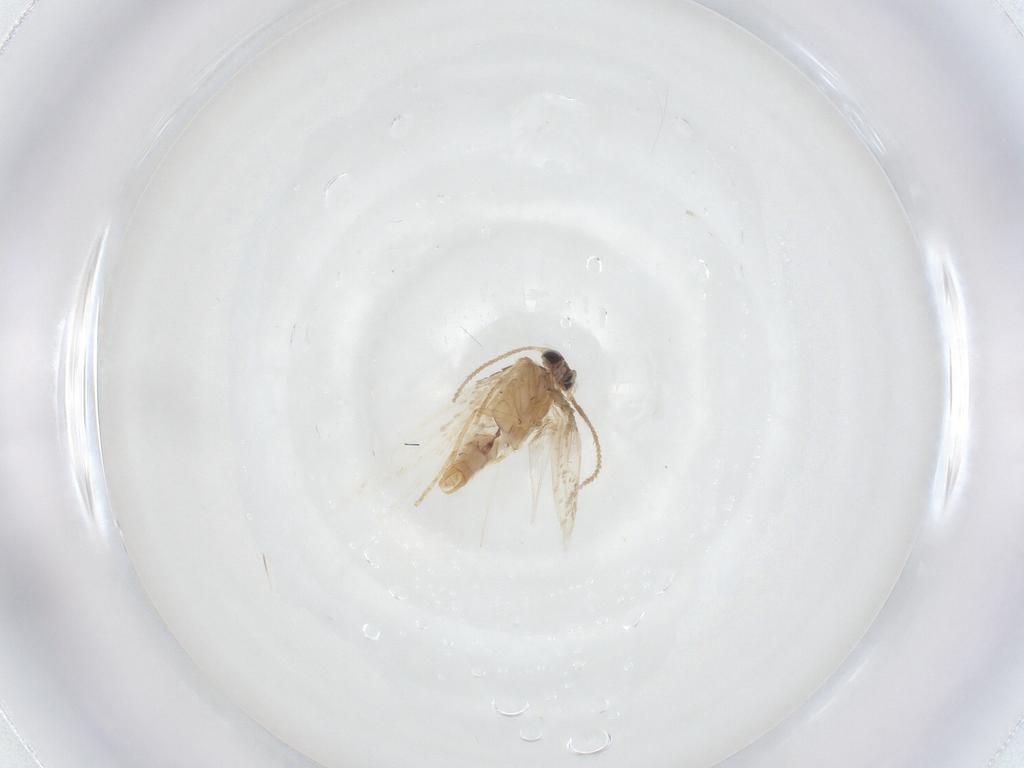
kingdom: Animalia
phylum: Arthropoda
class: Insecta
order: Lepidoptera
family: Nepticulidae
